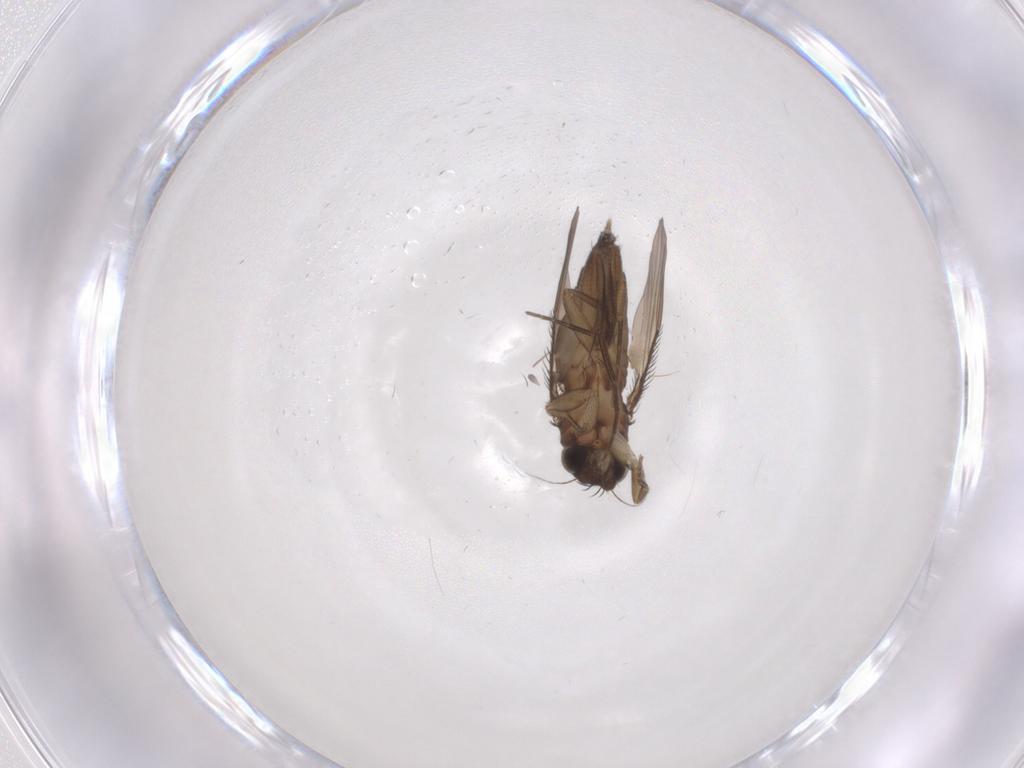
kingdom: Animalia
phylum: Arthropoda
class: Insecta
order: Diptera
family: Phoridae
